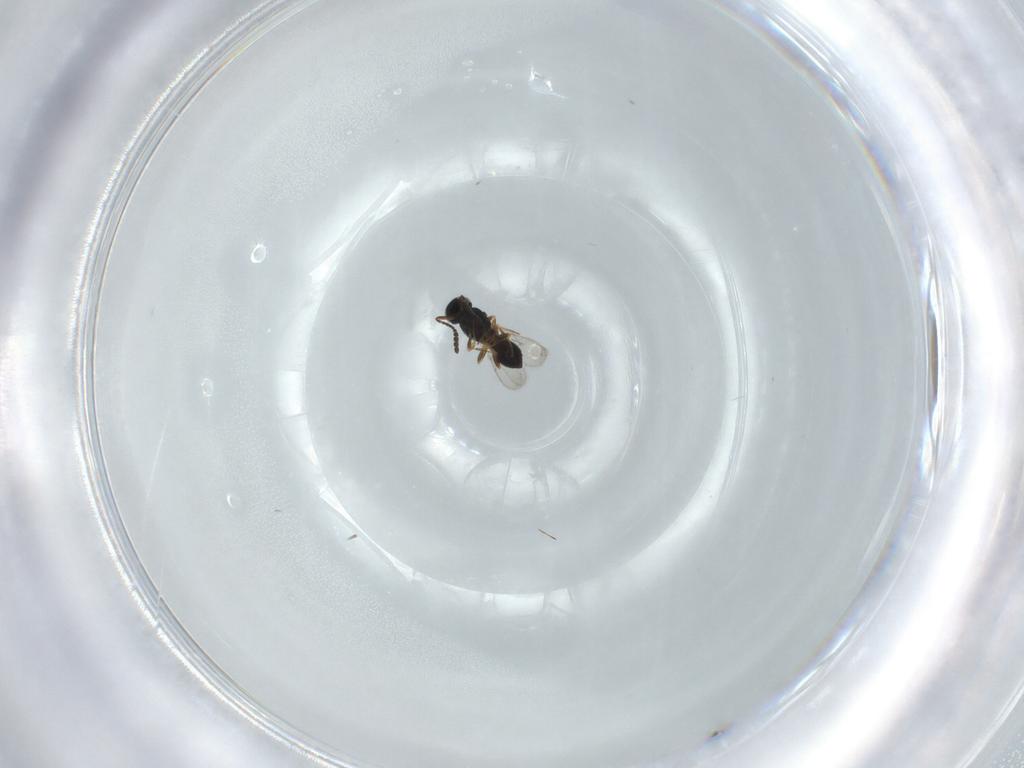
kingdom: Animalia
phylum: Arthropoda
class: Insecta
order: Hymenoptera
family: Scelionidae
